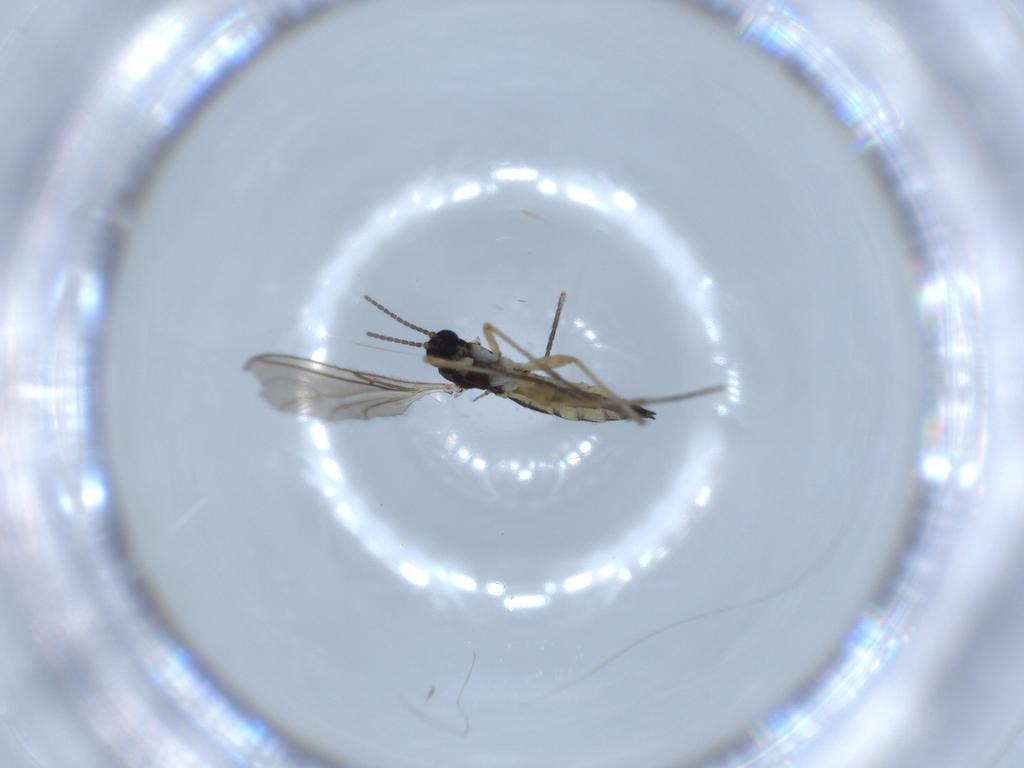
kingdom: Animalia
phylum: Arthropoda
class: Insecta
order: Diptera
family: Sciaridae
